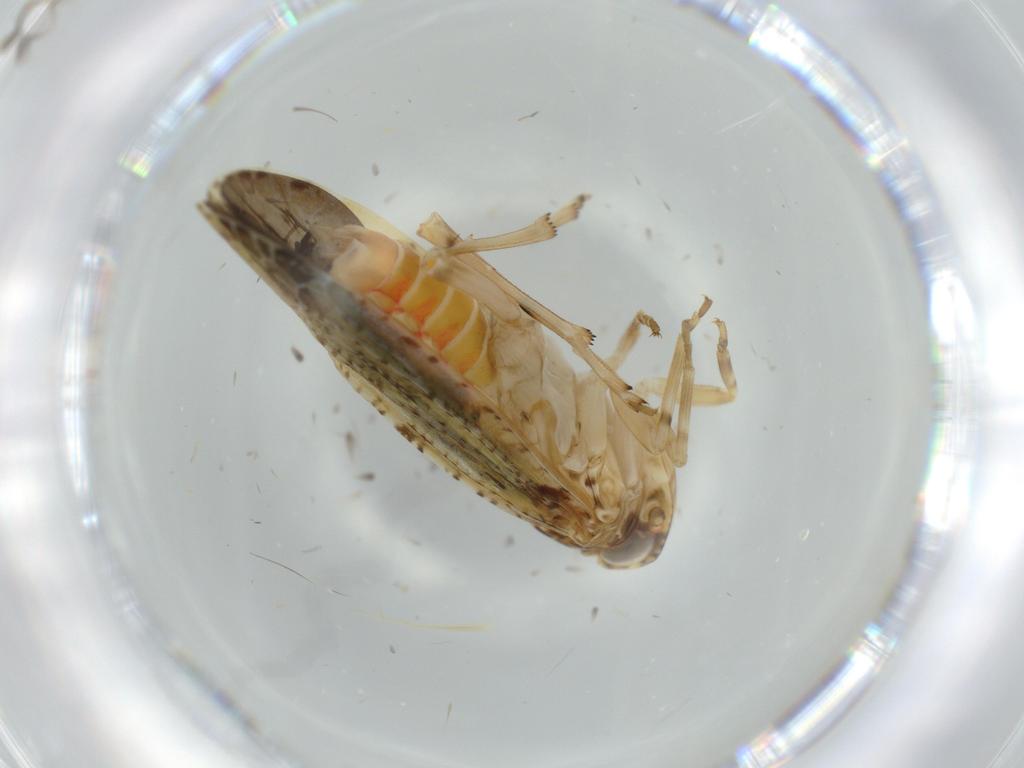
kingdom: Animalia
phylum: Arthropoda
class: Insecta
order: Hemiptera
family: Achilidae
